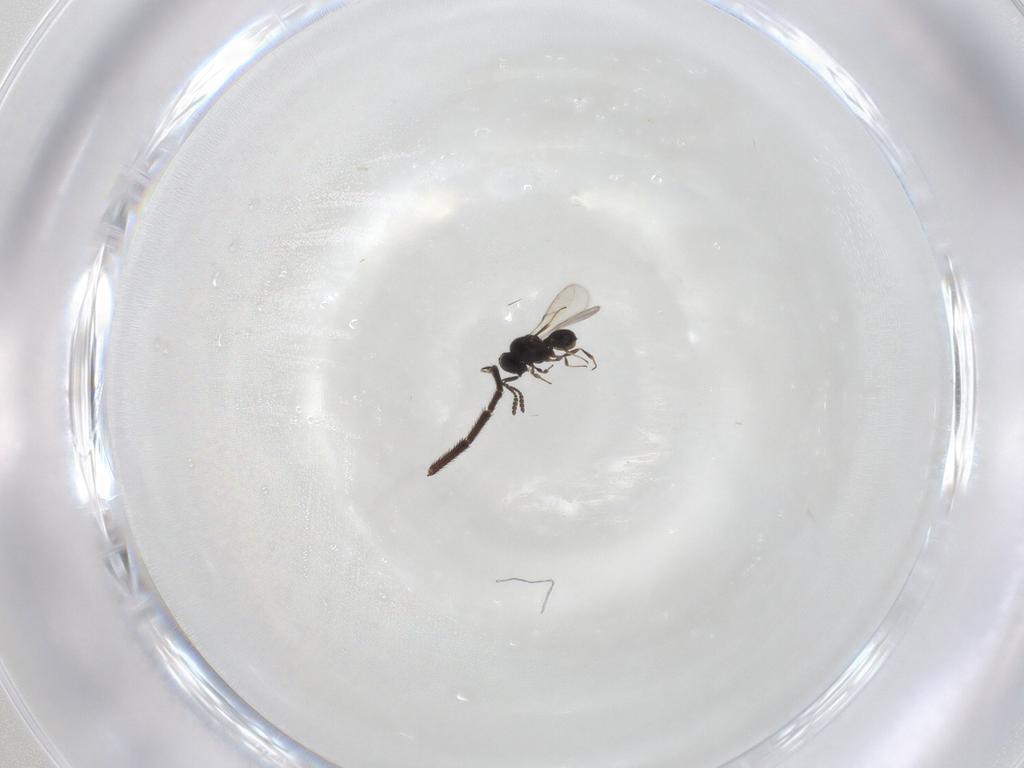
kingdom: Animalia
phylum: Arthropoda
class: Insecta
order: Hymenoptera
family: Scelionidae
